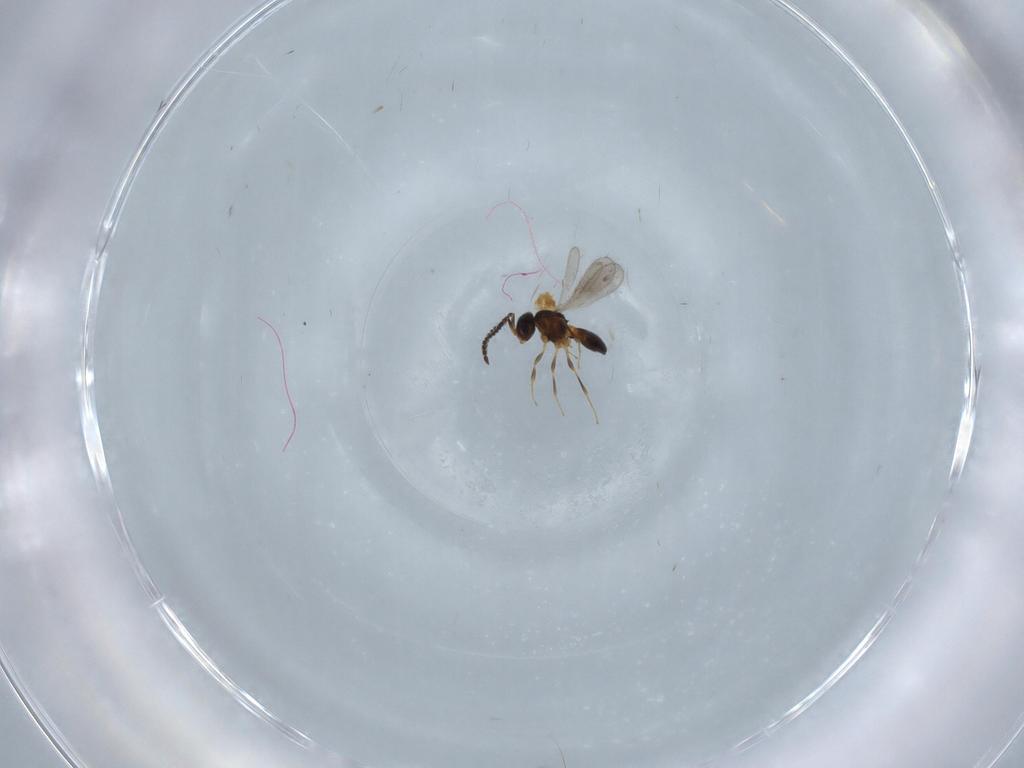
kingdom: Animalia
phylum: Arthropoda
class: Insecta
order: Hymenoptera
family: Scelionidae
